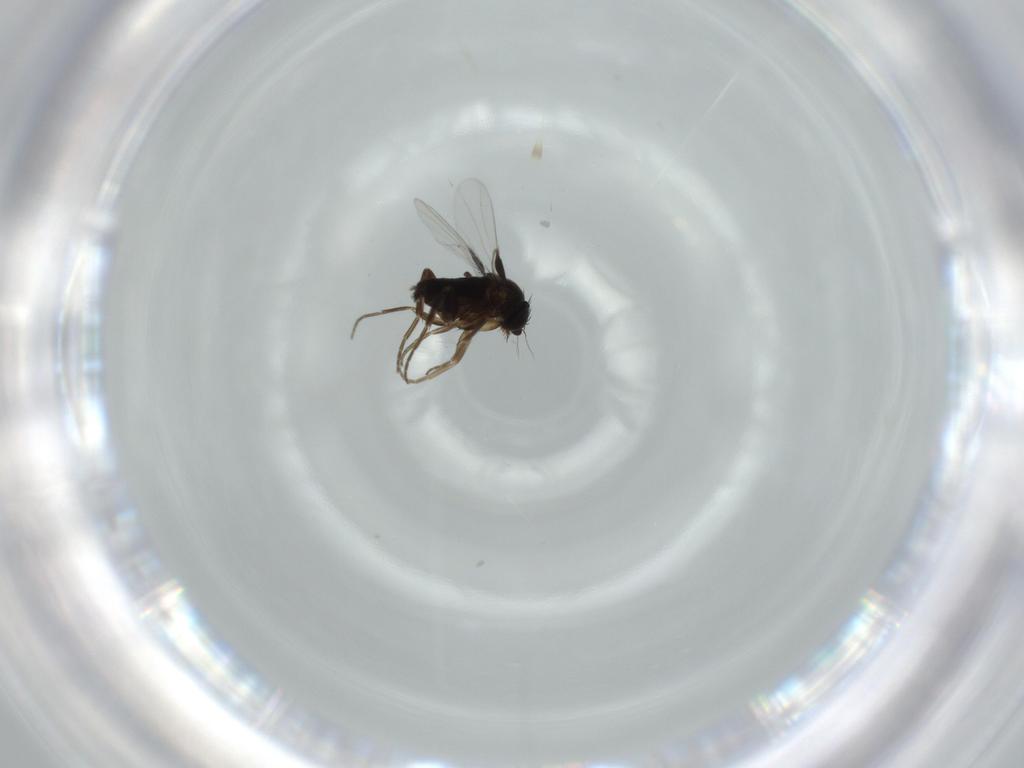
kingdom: Animalia
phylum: Arthropoda
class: Insecta
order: Diptera
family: Phoridae
